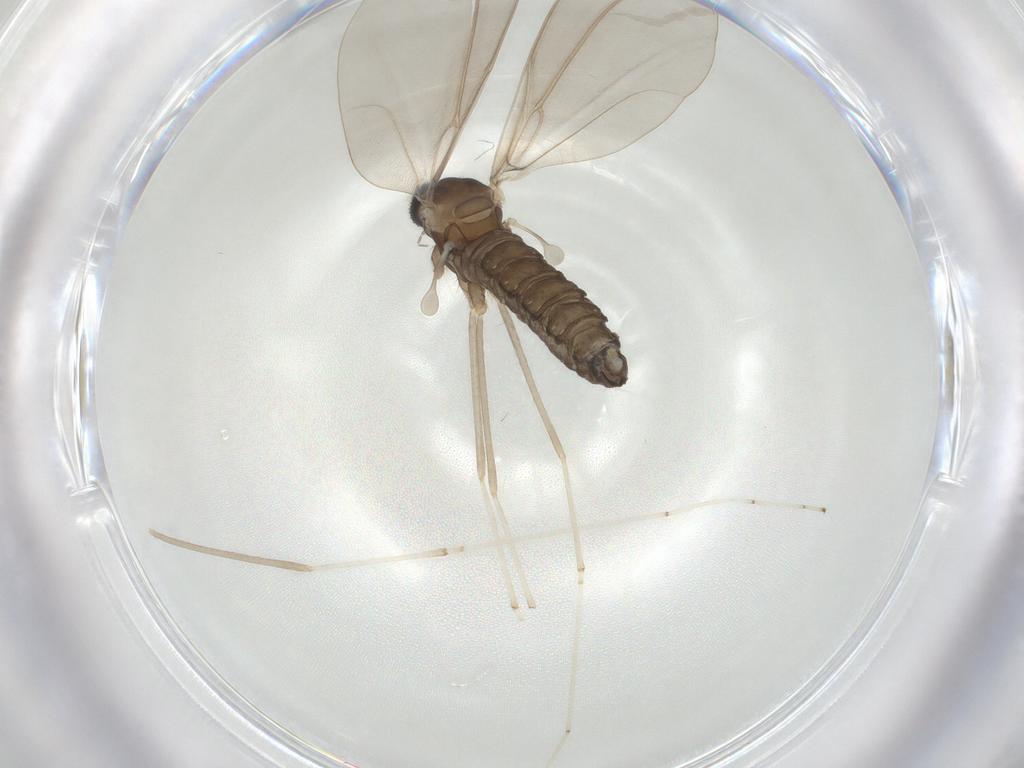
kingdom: Animalia
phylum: Arthropoda
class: Insecta
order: Diptera
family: Cecidomyiidae
